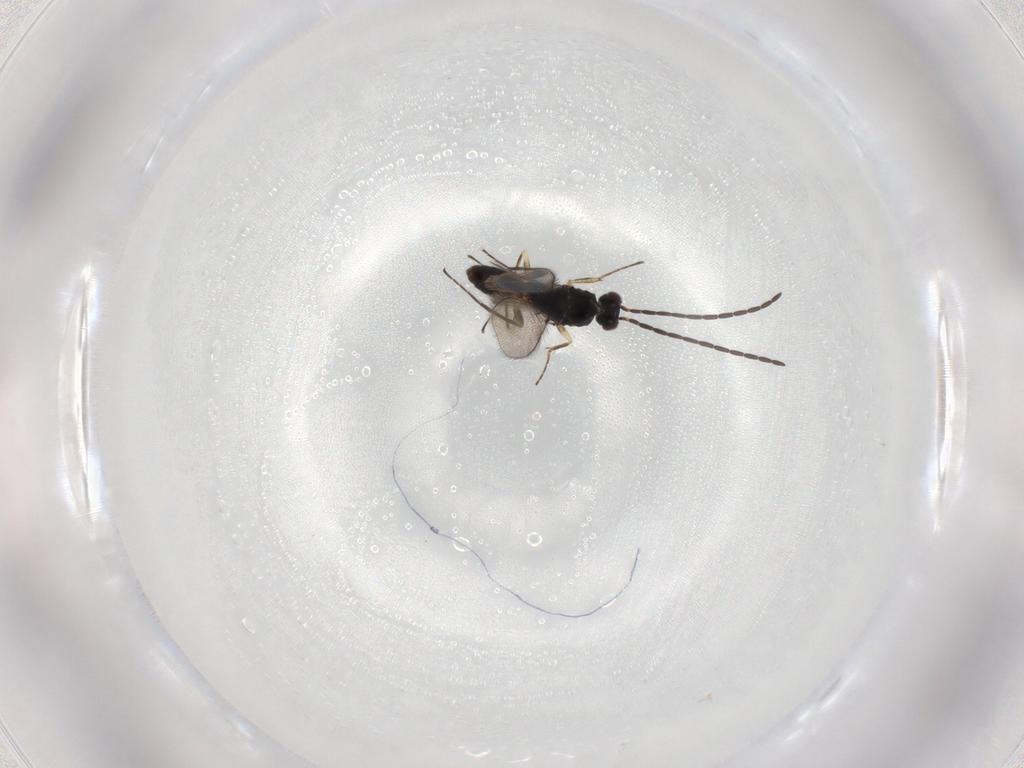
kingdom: Animalia
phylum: Arthropoda
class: Insecta
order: Hymenoptera
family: Mymaridae
